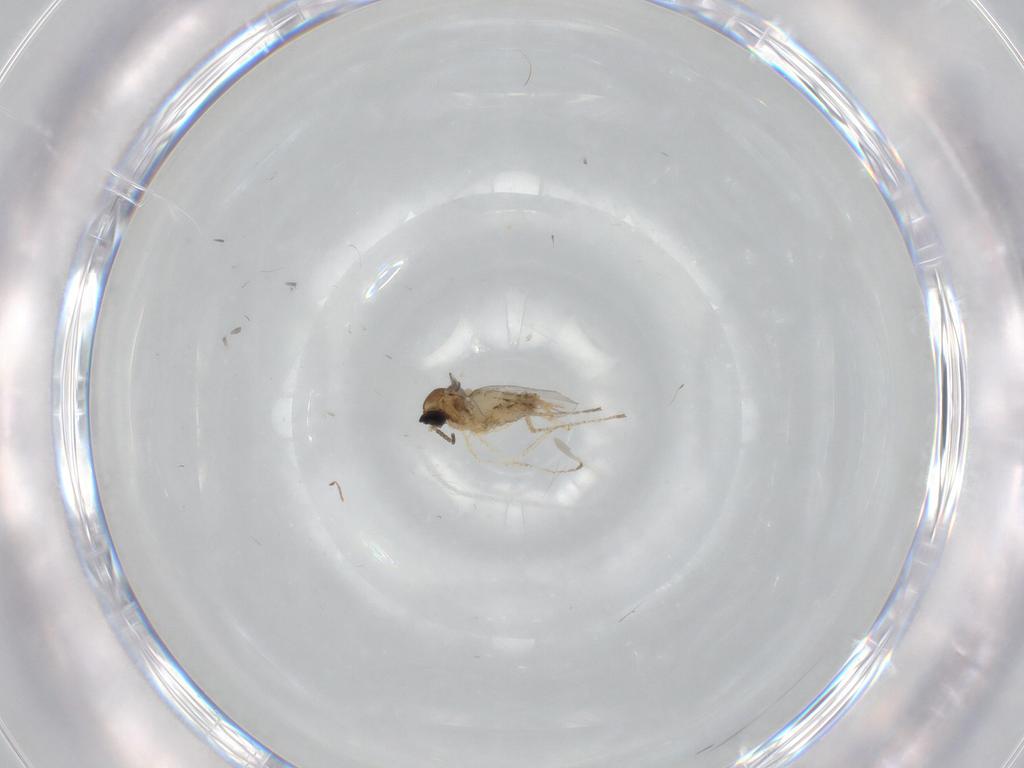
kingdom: Animalia
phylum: Arthropoda
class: Insecta
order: Diptera
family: Cecidomyiidae
